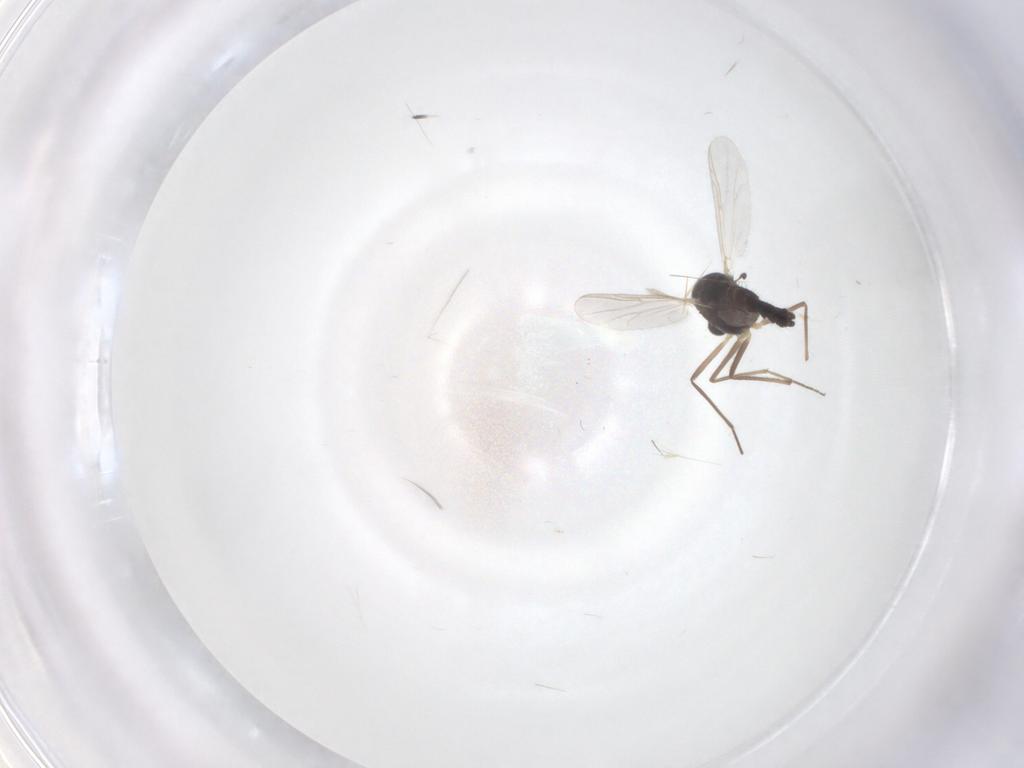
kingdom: Animalia
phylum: Arthropoda
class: Insecta
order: Diptera
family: Chironomidae
